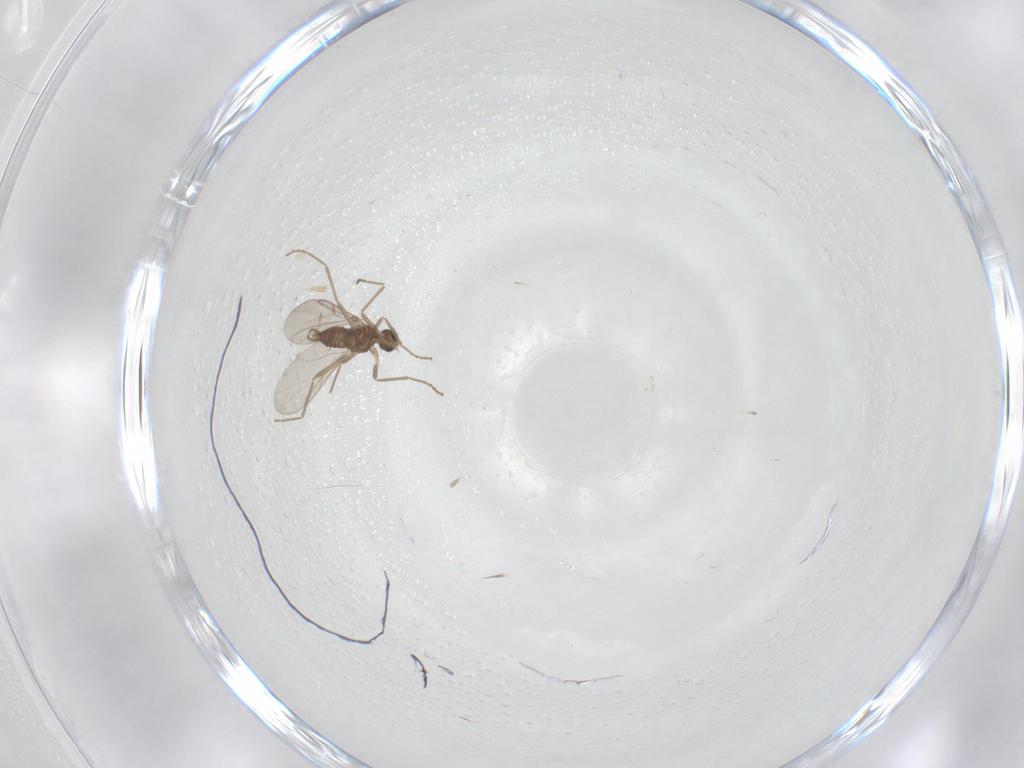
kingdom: Animalia
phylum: Arthropoda
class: Insecta
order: Diptera
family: Cecidomyiidae
